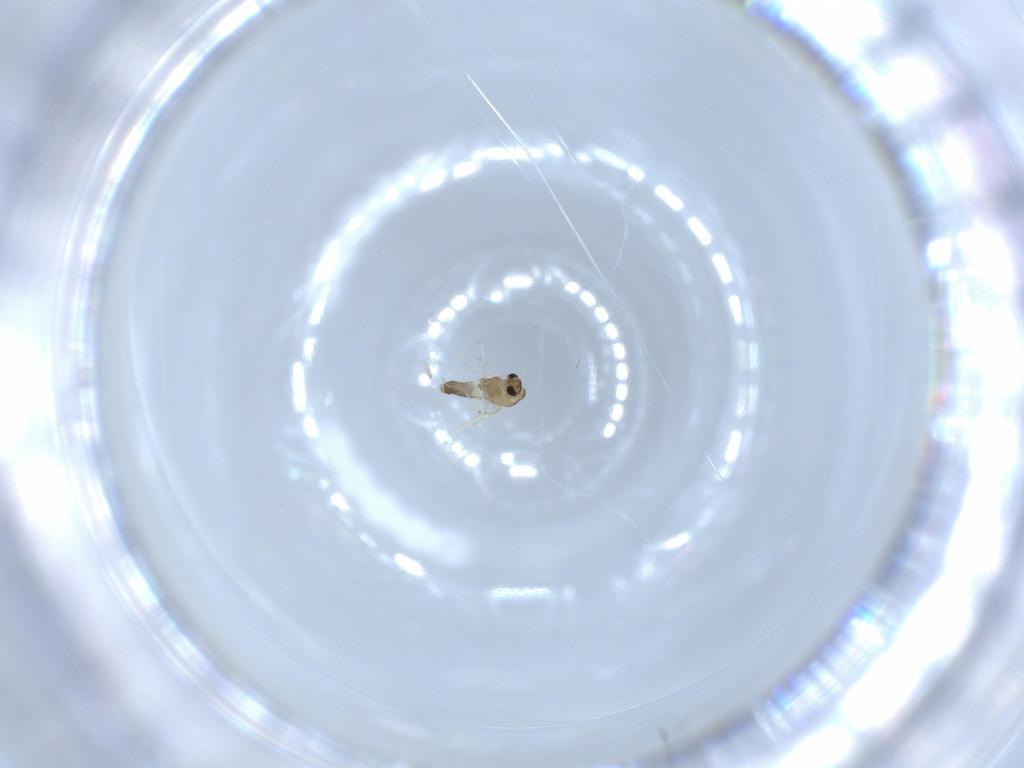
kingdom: Animalia
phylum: Arthropoda
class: Insecta
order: Diptera
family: Chironomidae
